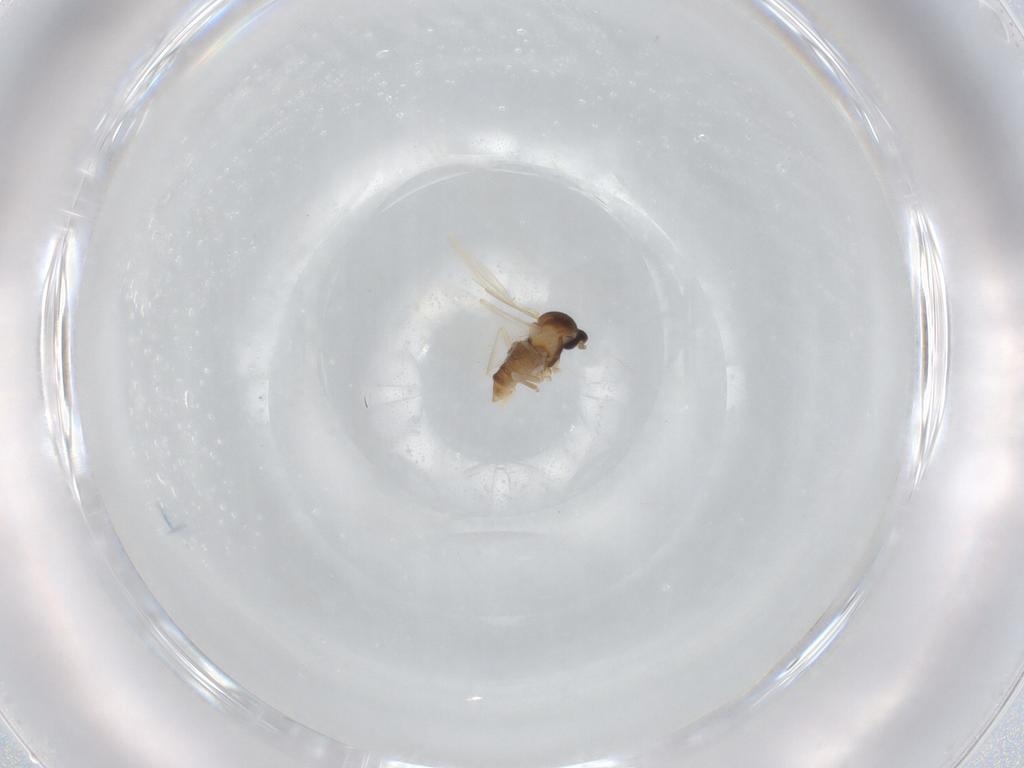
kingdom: Animalia
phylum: Arthropoda
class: Insecta
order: Diptera
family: Cecidomyiidae
